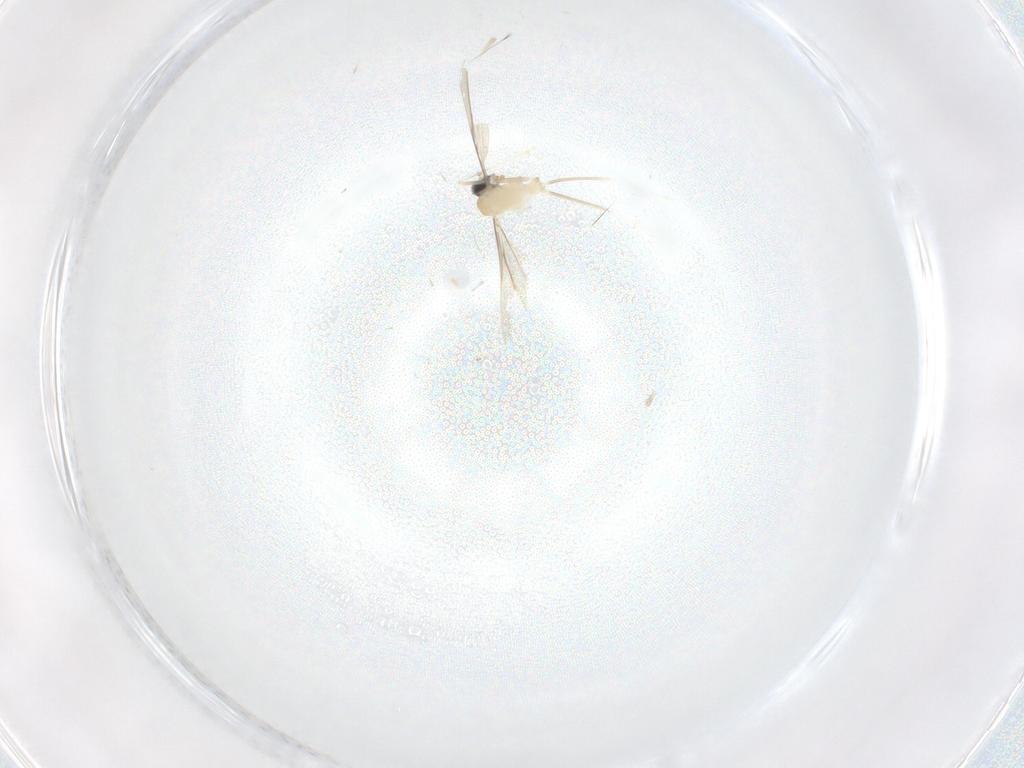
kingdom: Animalia
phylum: Arthropoda
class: Insecta
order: Diptera
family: Cecidomyiidae
